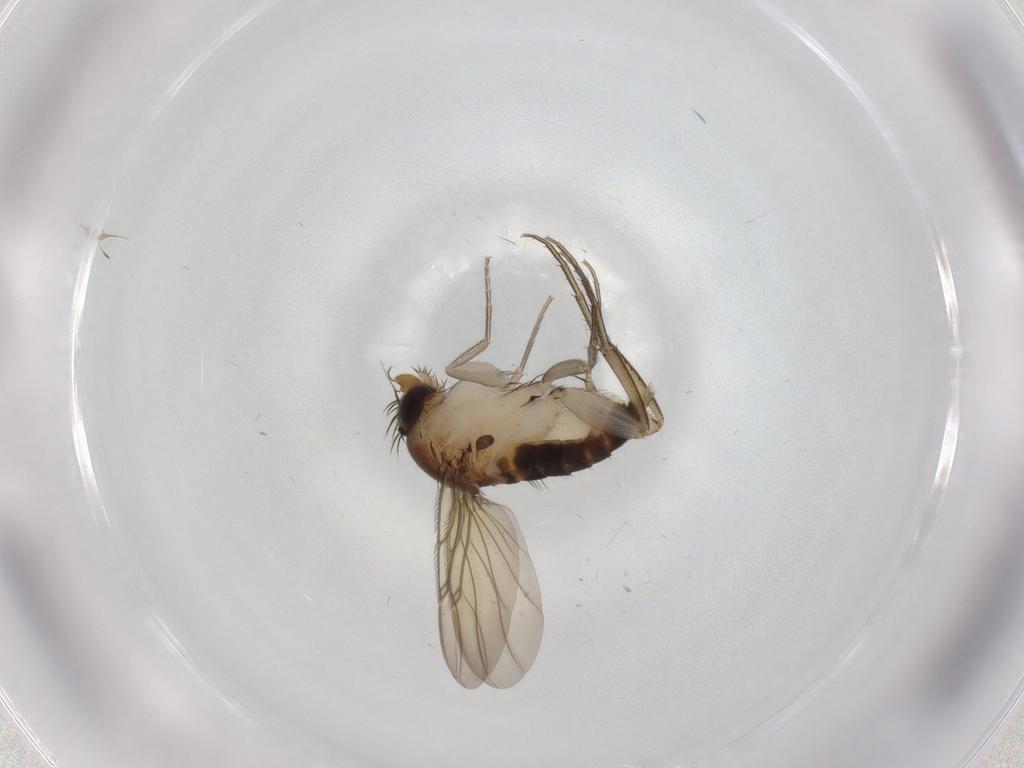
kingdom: Animalia
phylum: Arthropoda
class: Insecta
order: Diptera
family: Phoridae
